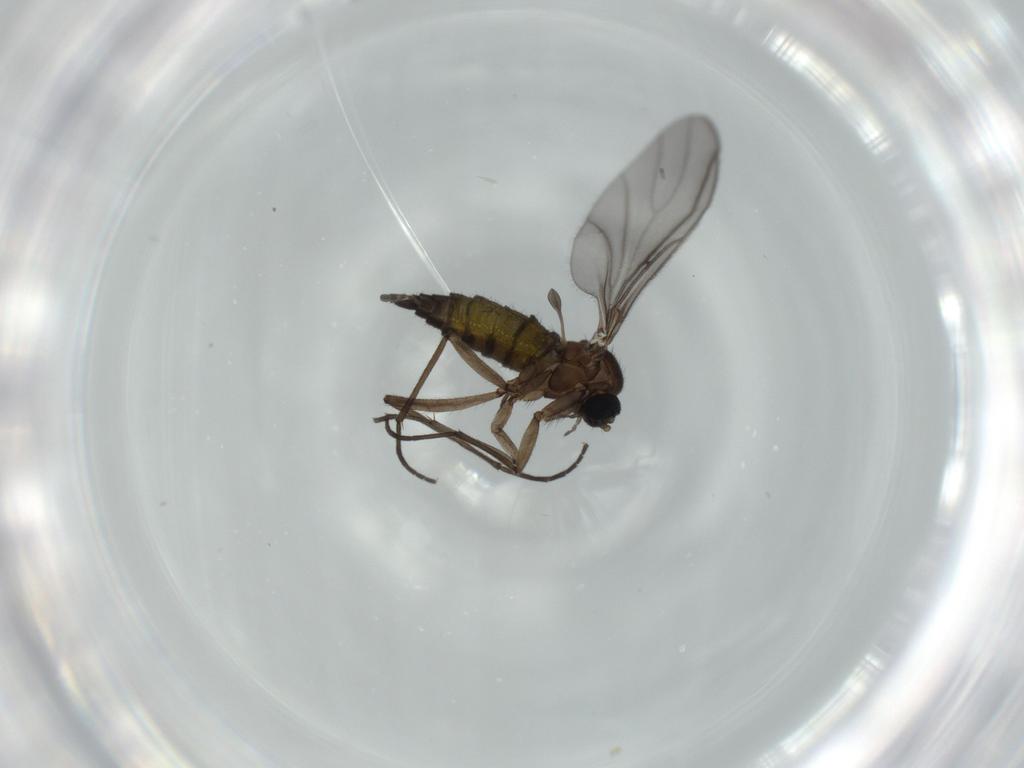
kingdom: Animalia
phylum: Arthropoda
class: Insecta
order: Diptera
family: Sciaridae
